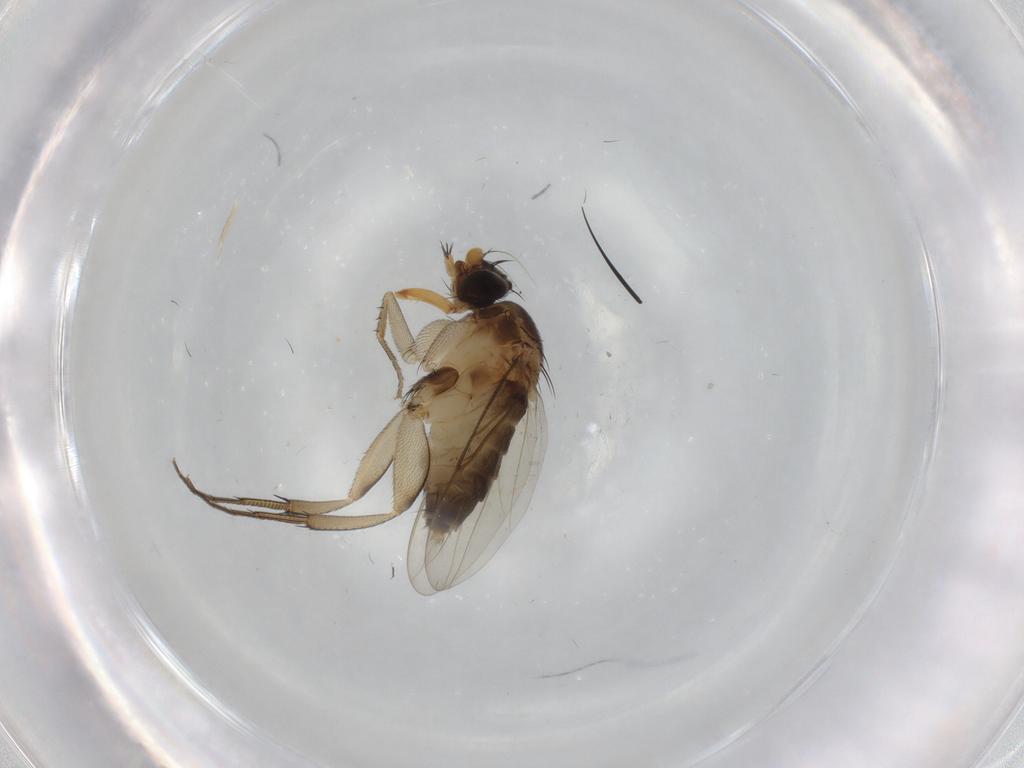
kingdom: Animalia
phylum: Arthropoda
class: Insecta
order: Diptera
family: Phoridae
